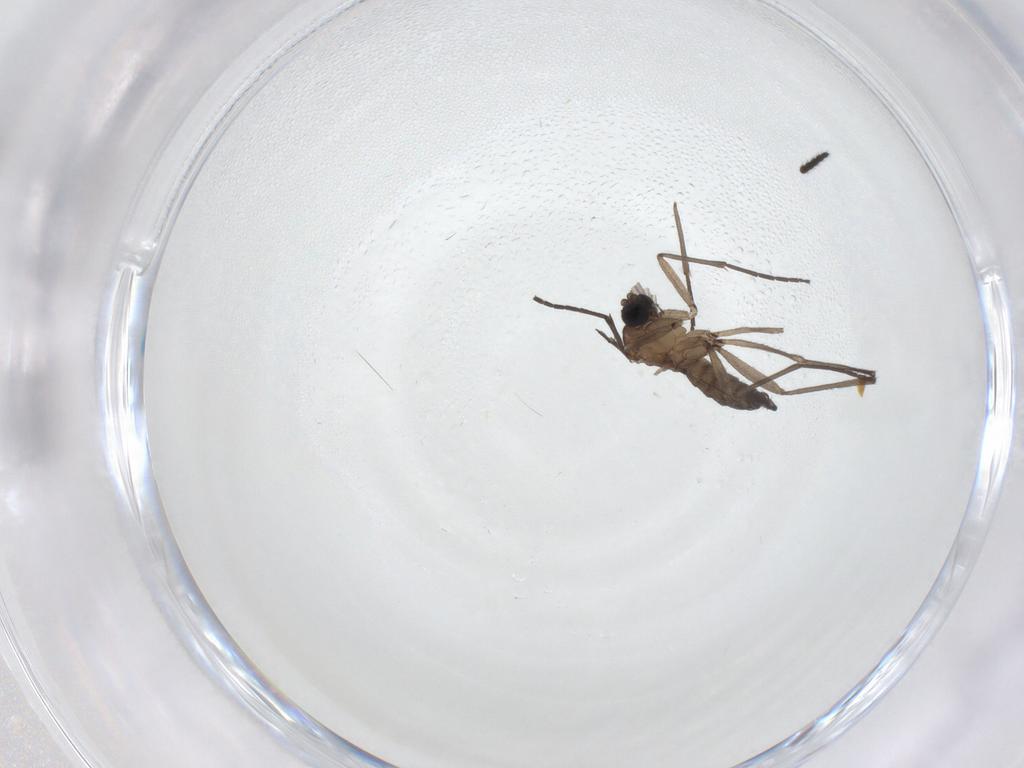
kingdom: Animalia
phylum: Arthropoda
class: Insecta
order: Diptera
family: Sciaridae
